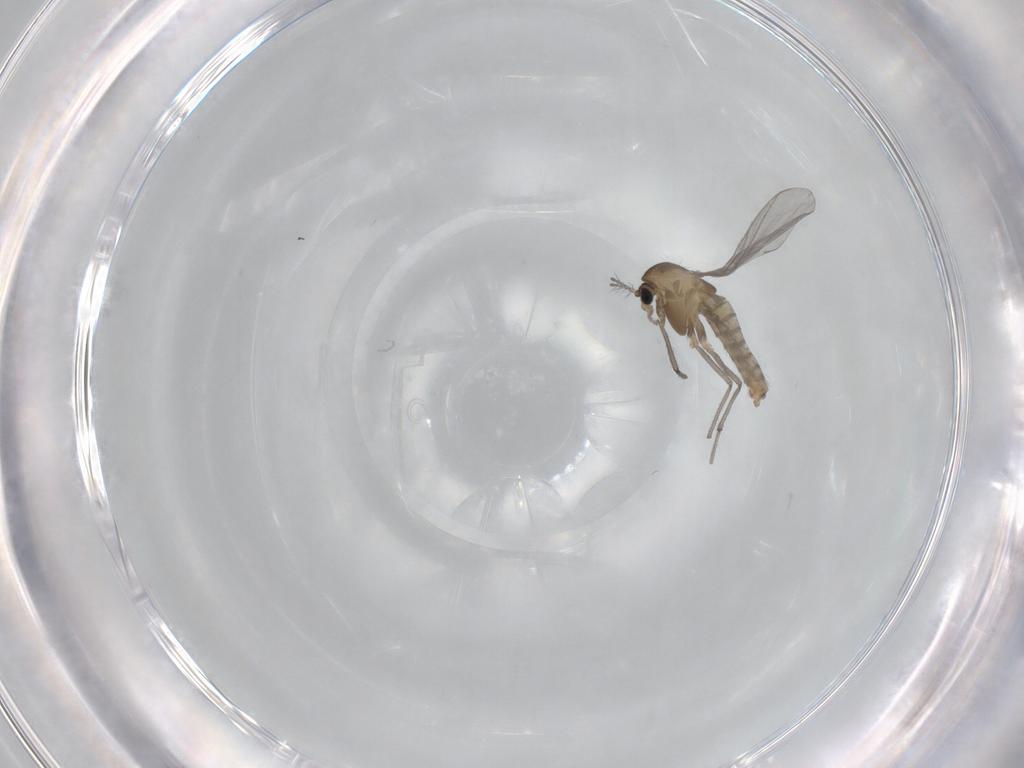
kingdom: Animalia
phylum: Arthropoda
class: Insecta
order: Diptera
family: Chironomidae
